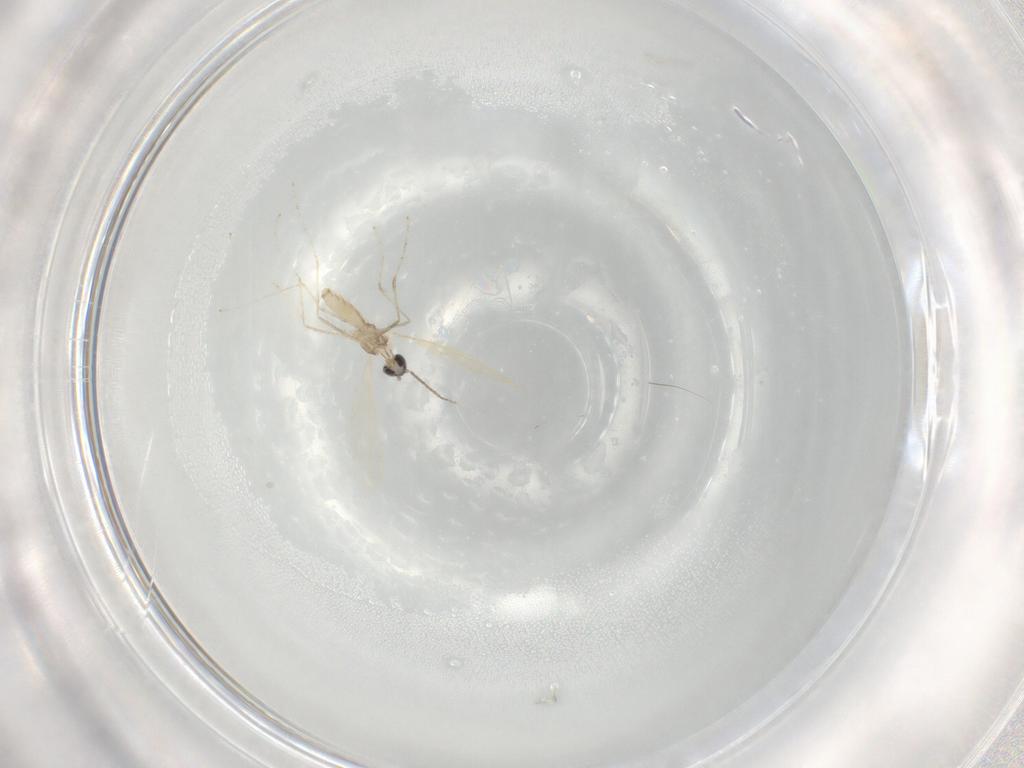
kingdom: Animalia
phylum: Arthropoda
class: Insecta
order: Diptera
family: Cecidomyiidae
